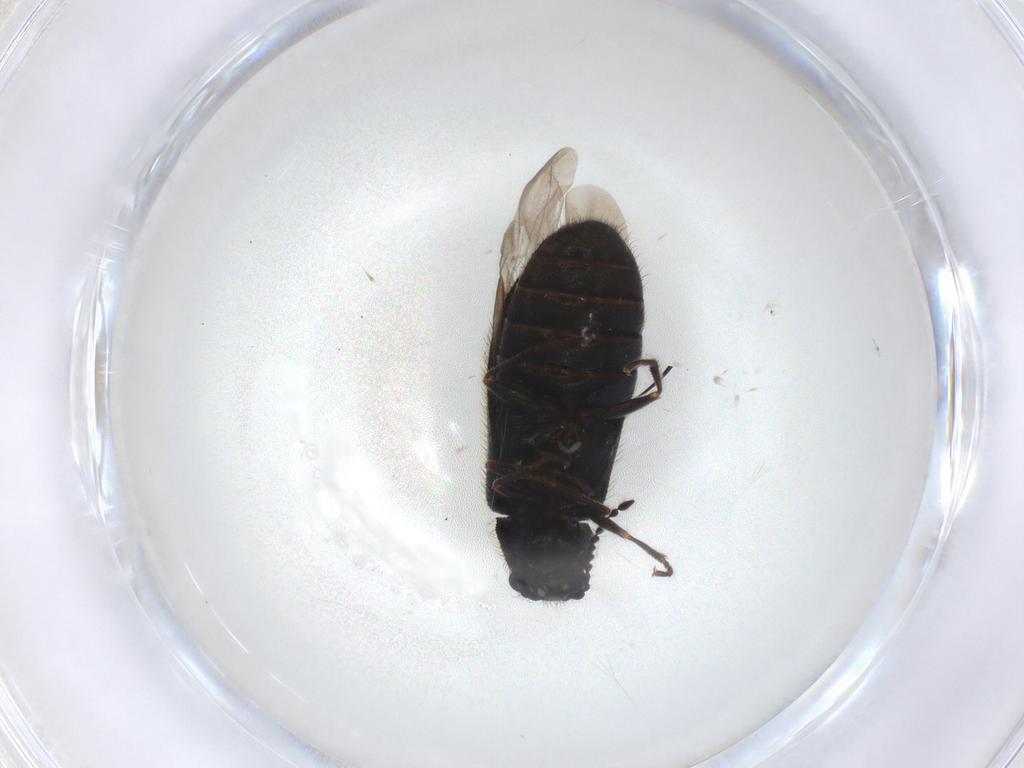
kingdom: Animalia
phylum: Arthropoda
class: Insecta
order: Coleoptera
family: Melyridae
